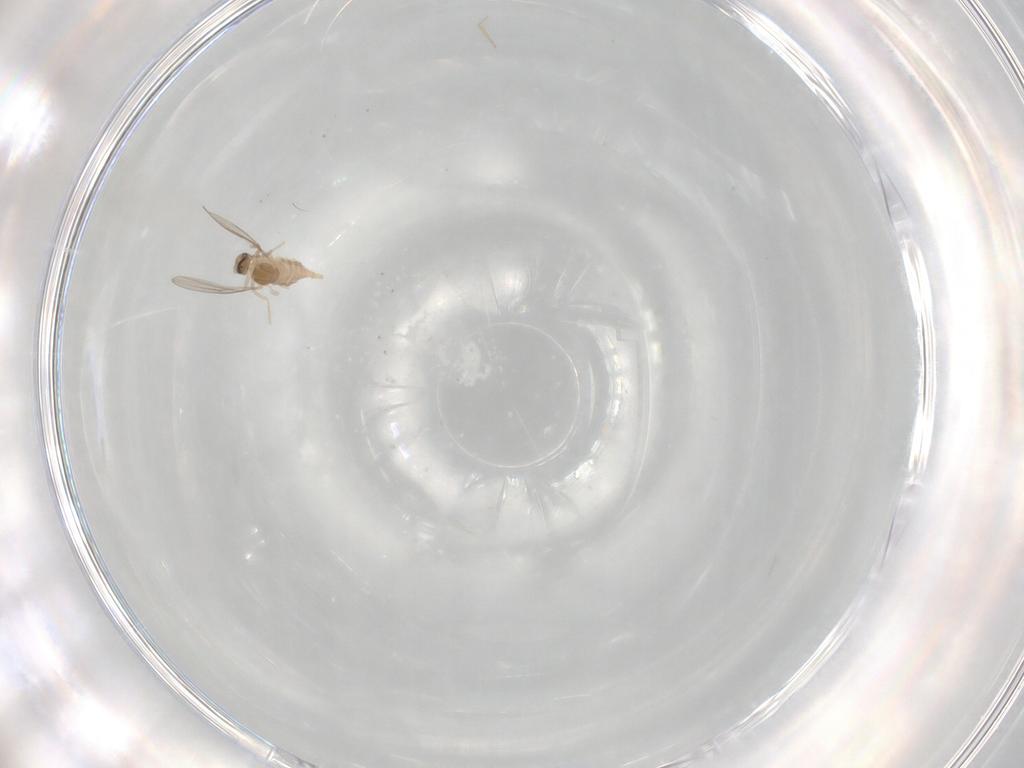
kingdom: Animalia
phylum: Arthropoda
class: Insecta
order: Diptera
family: Cecidomyiidae
